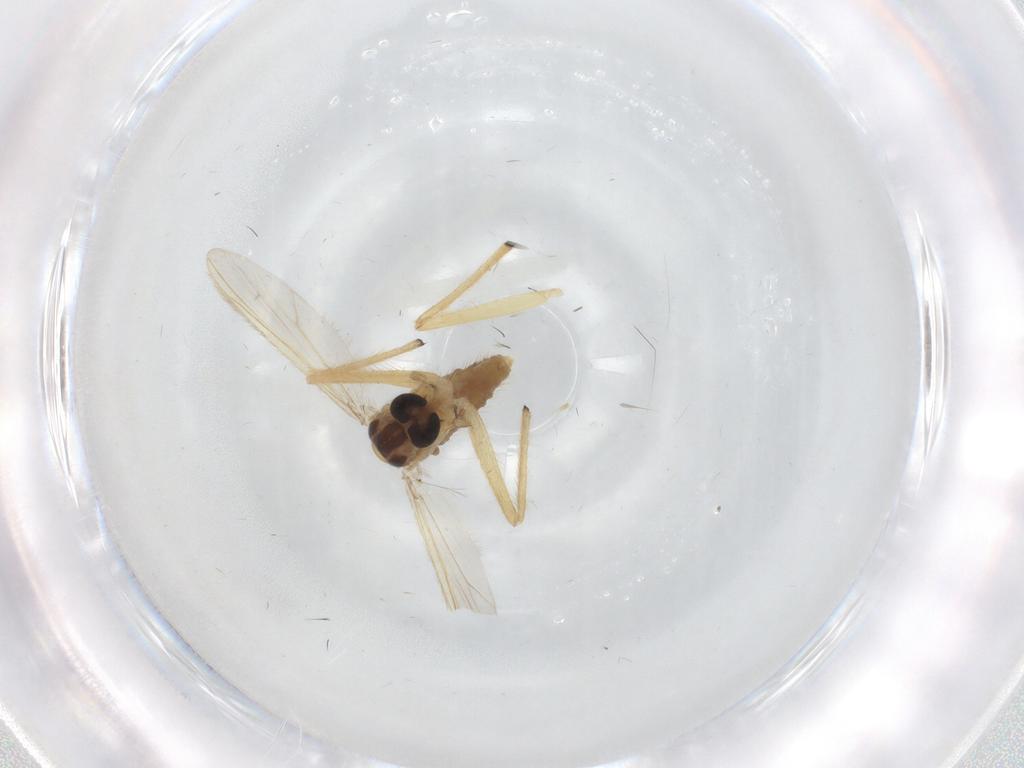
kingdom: Animalia
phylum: Arthropoda
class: Insecta
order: Diptera
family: Chironomidae
